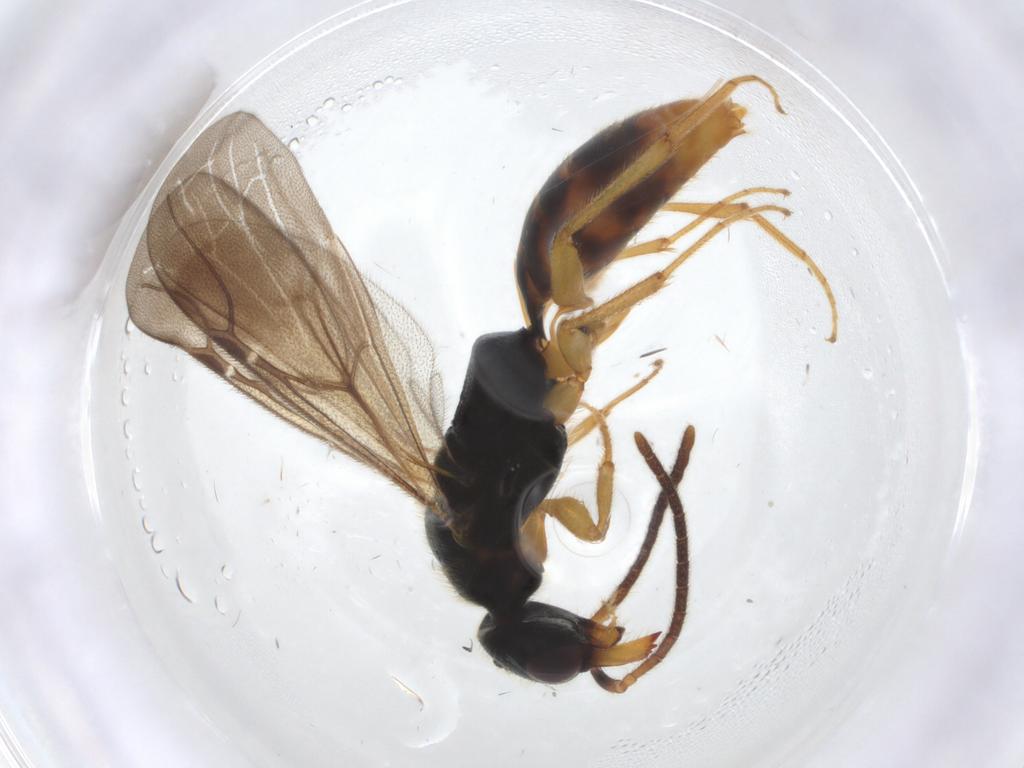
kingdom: Animalia
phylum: Arthropoda
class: Insecta
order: Hymenoptera
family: Bethylidae
